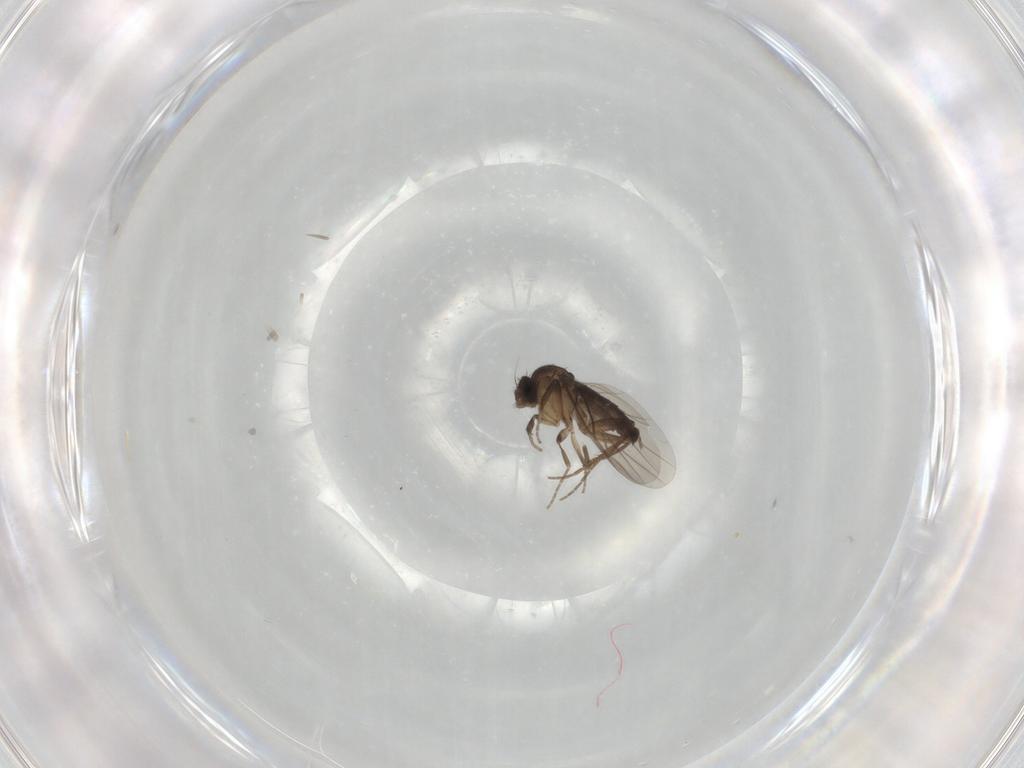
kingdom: Animalia
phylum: Arthropoda
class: Insecta
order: Diptera
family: Phoridae
